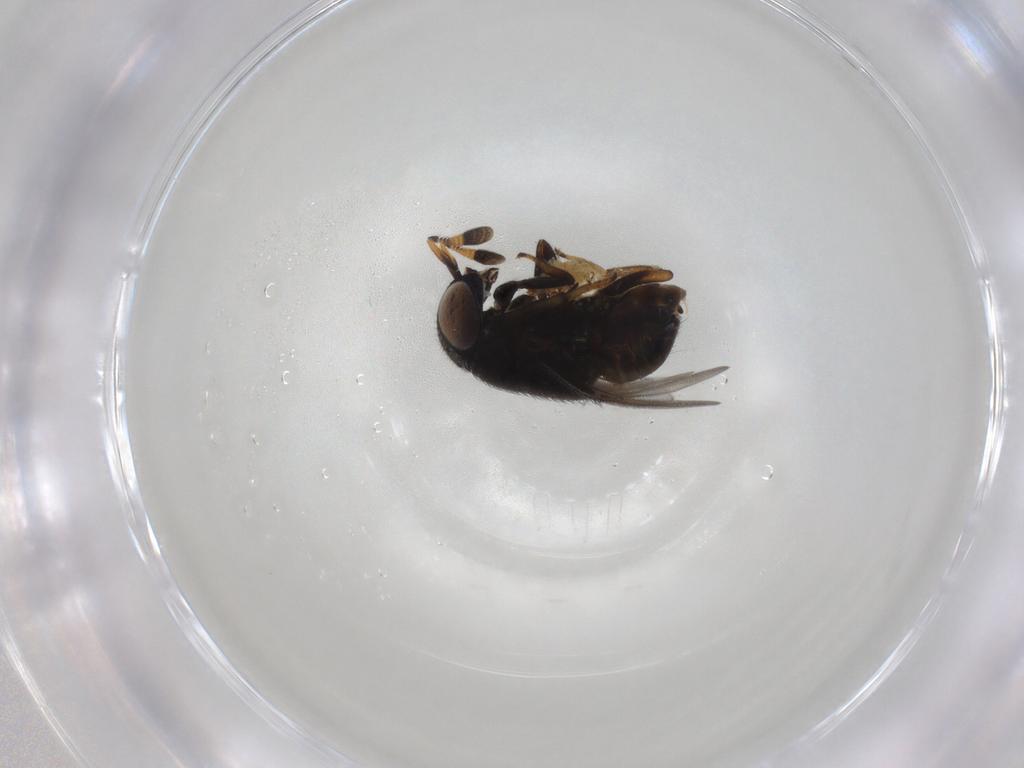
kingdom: Animalia
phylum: Arthropoda
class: Insecta
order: Hymenoptera
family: Encyrtidae
